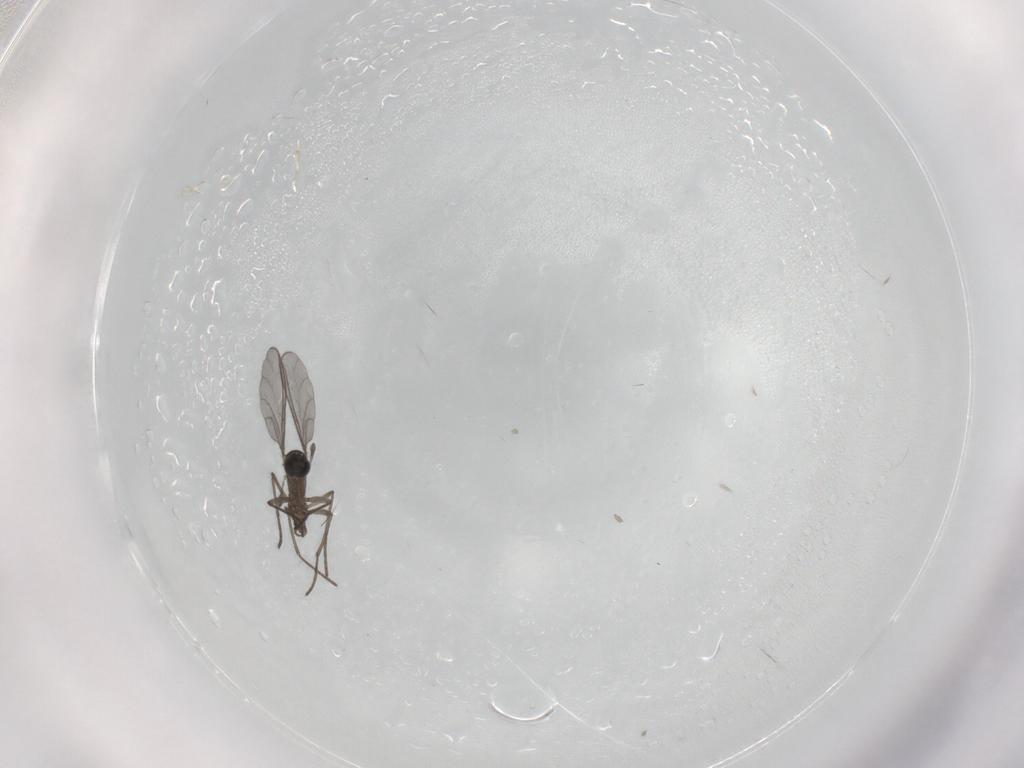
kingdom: Animalia
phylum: Arthropoda
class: Insecta
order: Diptera
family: Cecidomyiidae
